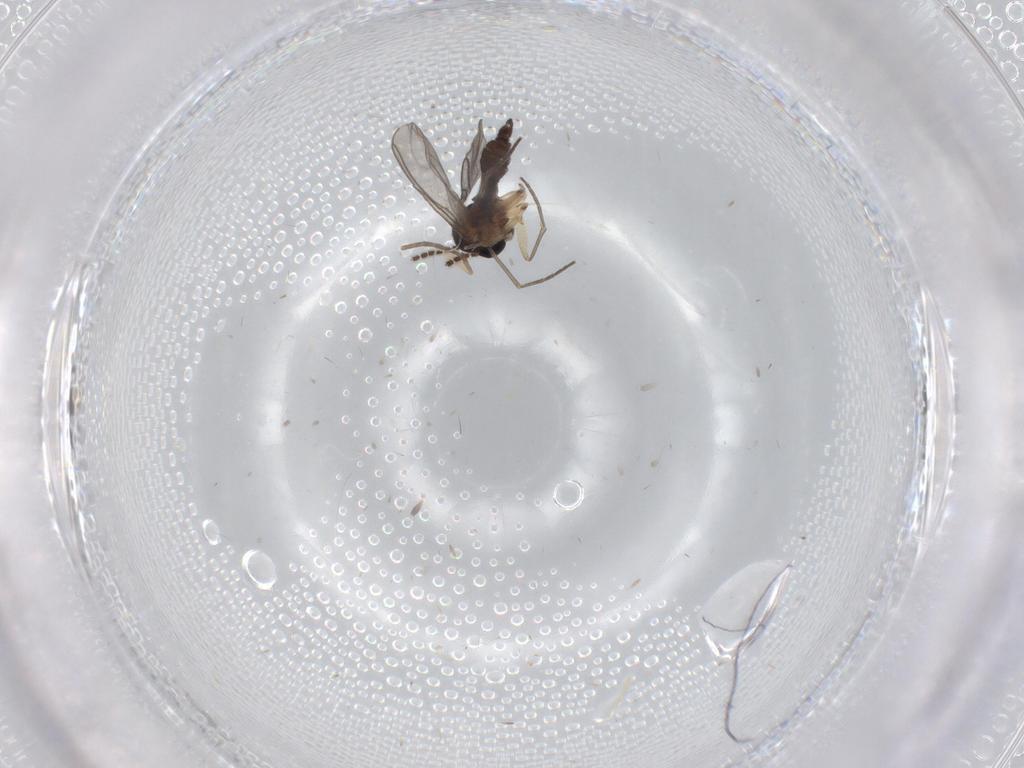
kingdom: Animalia
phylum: Arthropoda
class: Insecta
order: Diptera
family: Sciaridae
